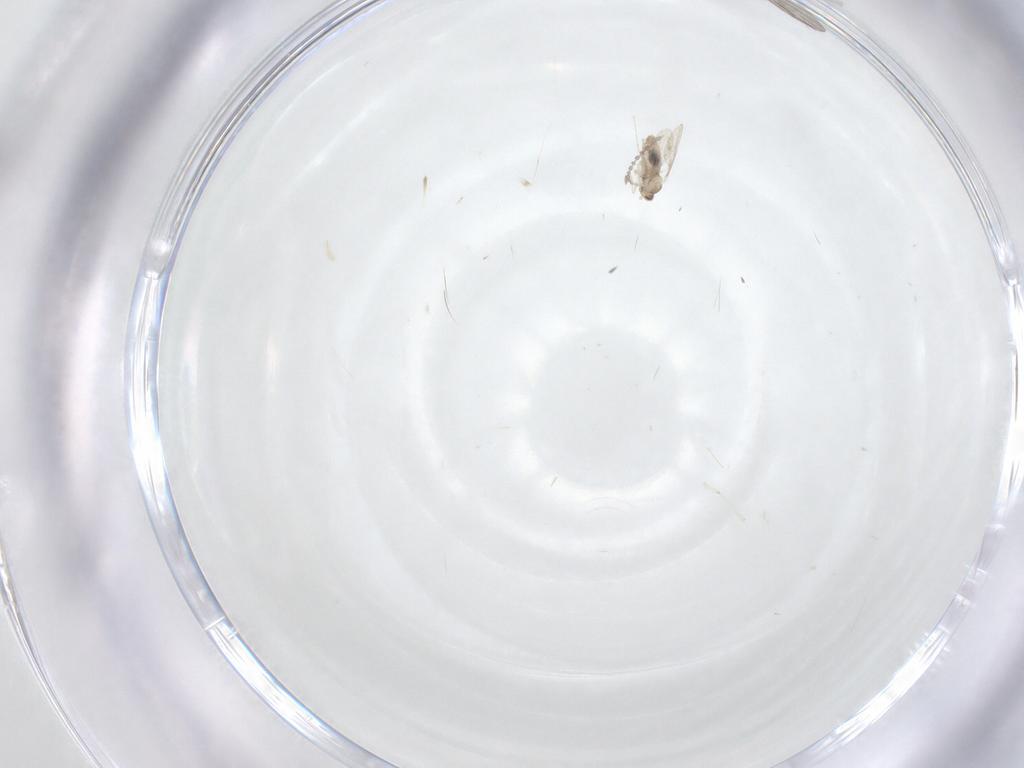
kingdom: Animalia
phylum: Arthropoda
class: Insecta
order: Diptera
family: Cecidomyiidae
